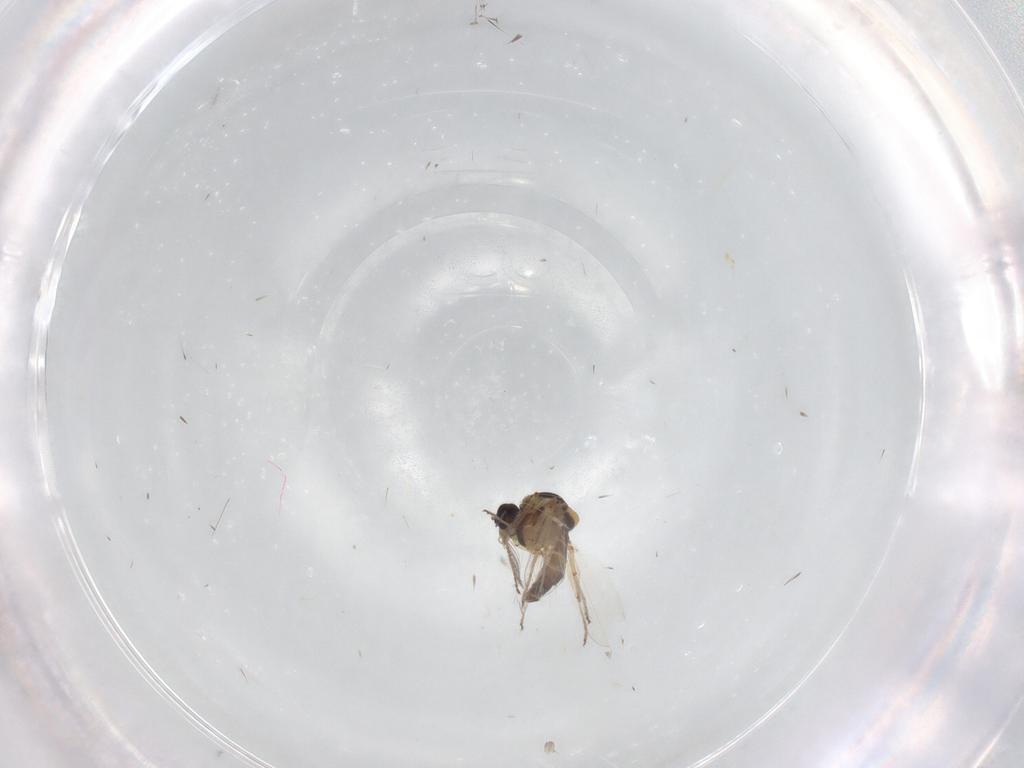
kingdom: Animalia
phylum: Arthropoda
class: Insecta
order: Diptera
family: Ceratopogonidae
